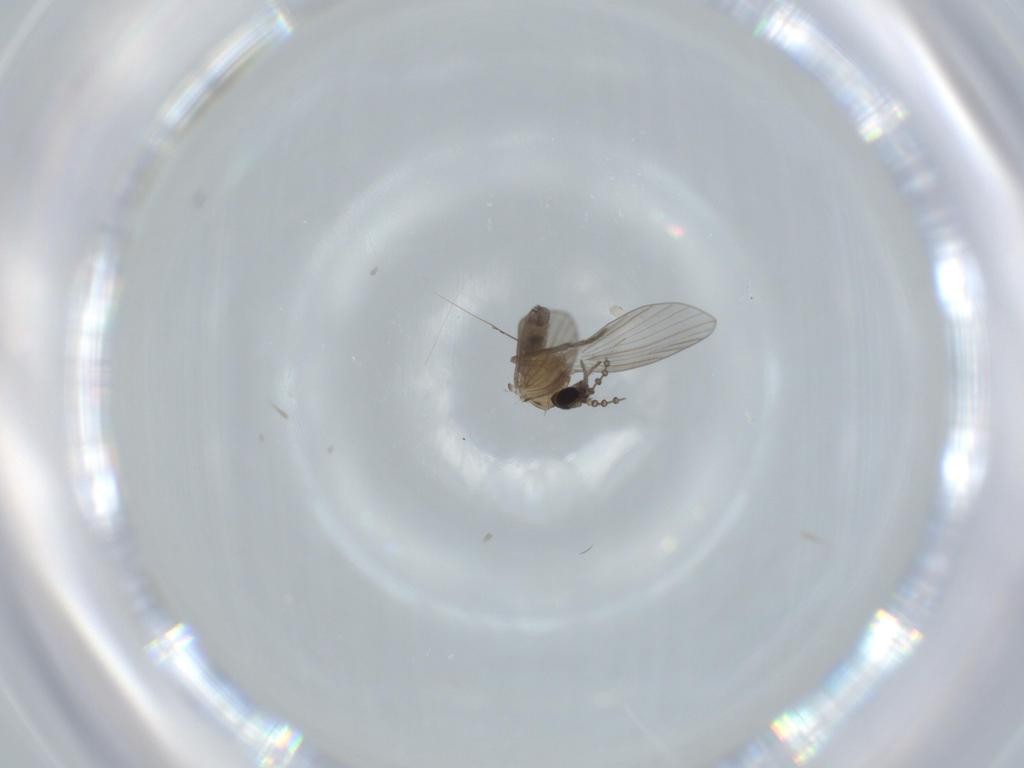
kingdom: Animalia
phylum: Arthropoda
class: Insecta
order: Diptera
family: Psychodidae
